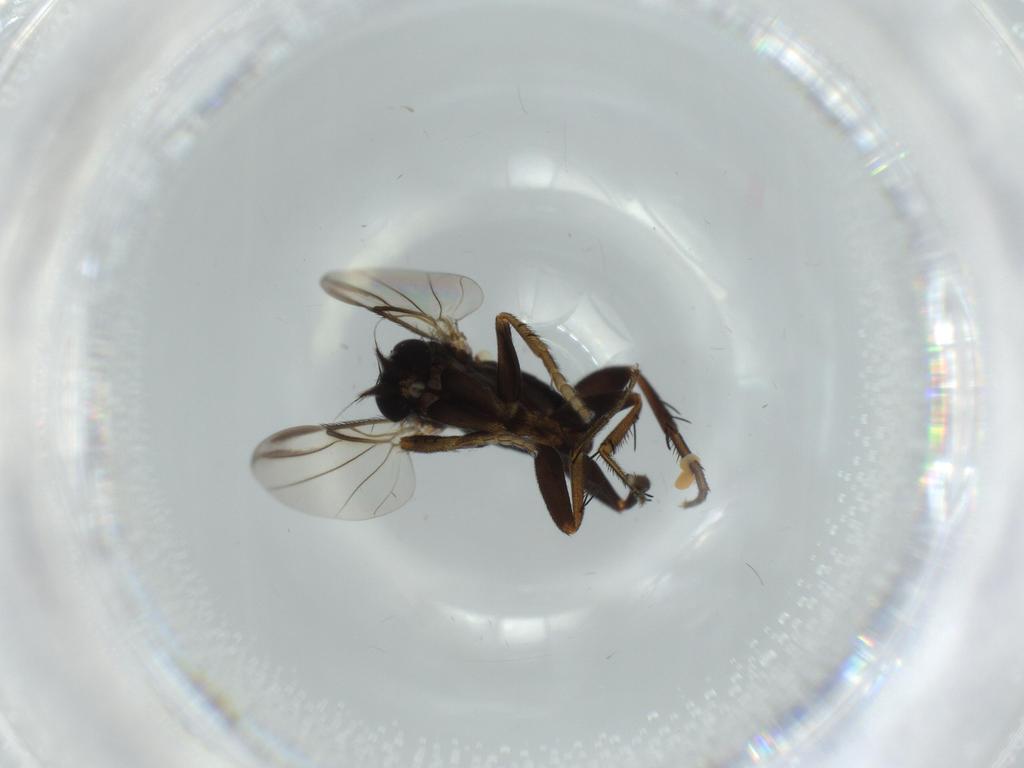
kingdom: Animalia
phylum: Arthropoda
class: Insecta
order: Diptera
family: Phoridae
